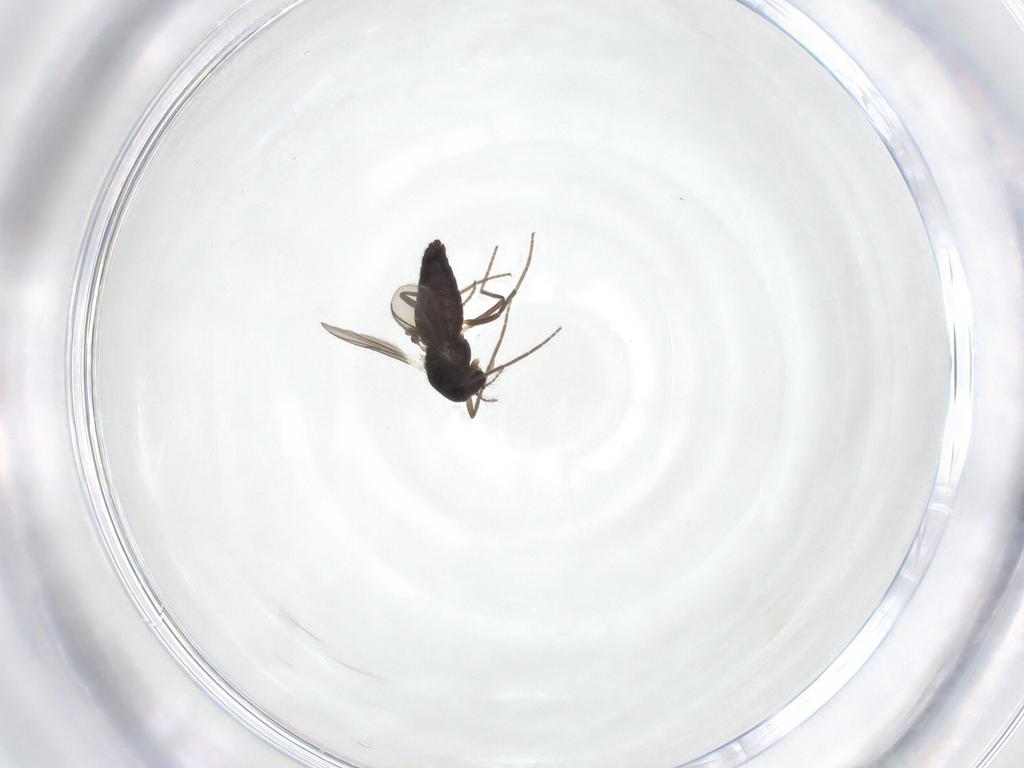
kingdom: Animalia
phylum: Arthropoda
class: Insecta
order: Diptera
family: Chironomidae
